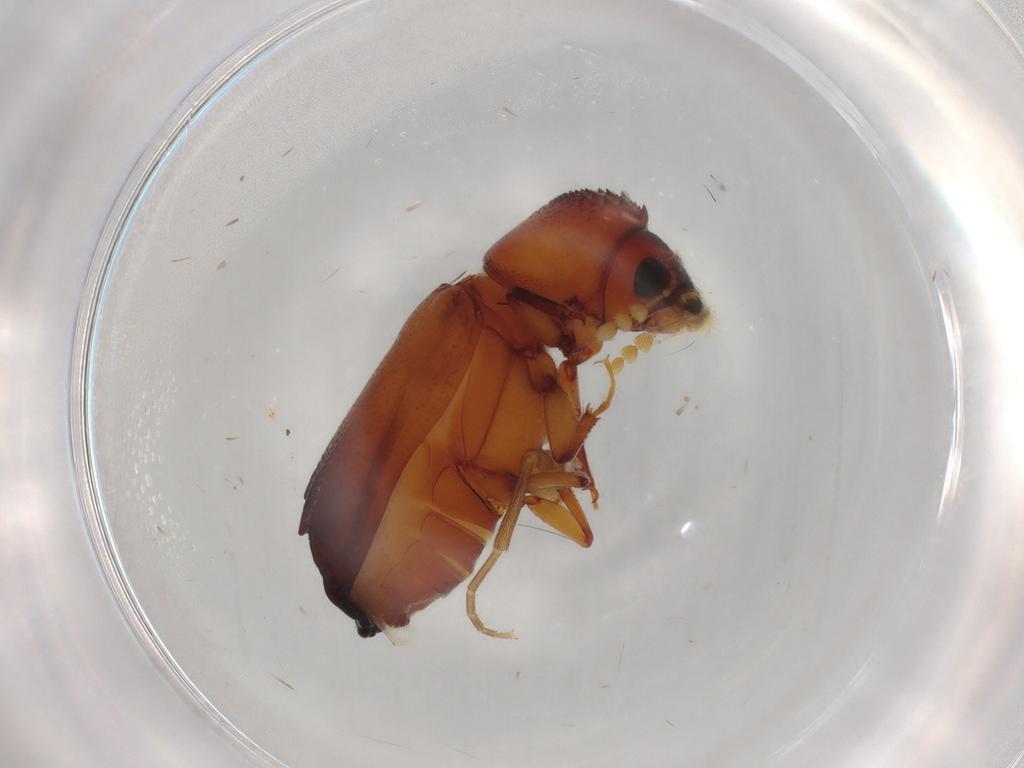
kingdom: Animalia
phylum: Arthropoda
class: Insecta
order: Coleoptera
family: Bostrichidae
